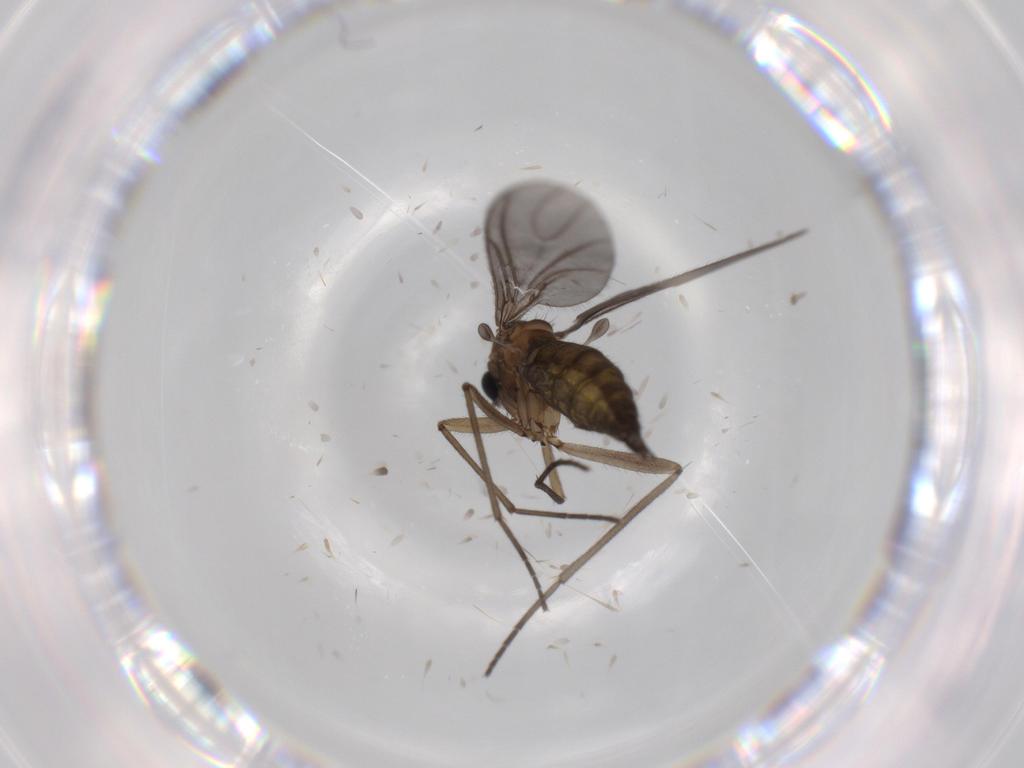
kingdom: Animalia
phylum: Arthropoda
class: Insecta
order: Diptera
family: Sciaridae
